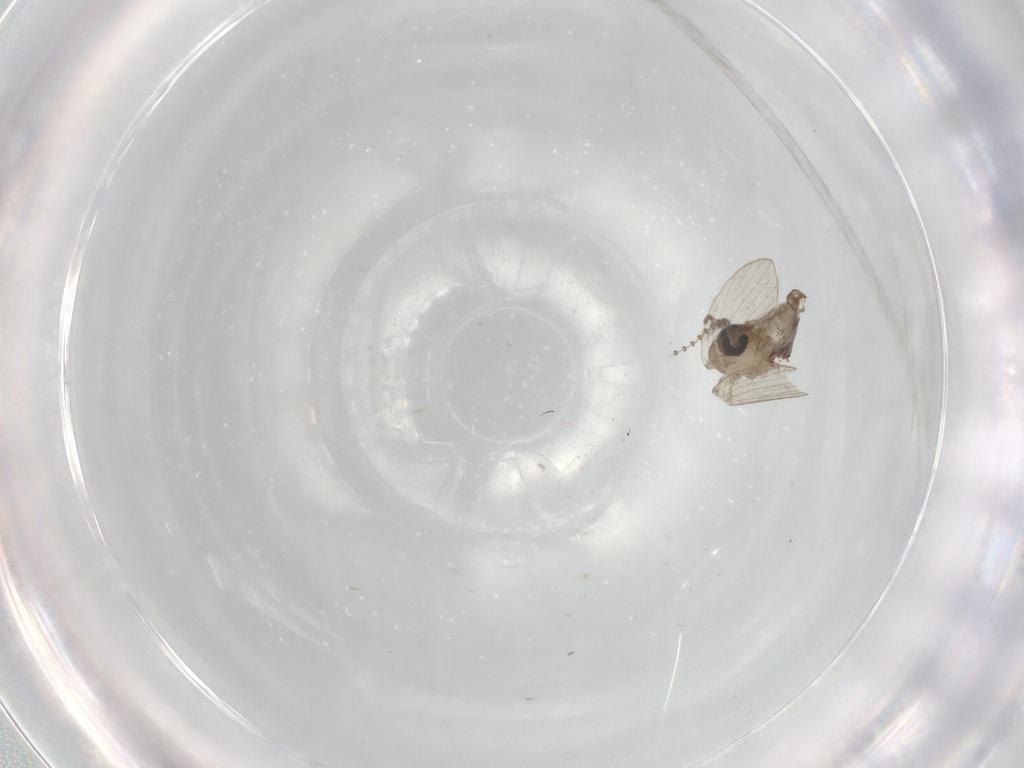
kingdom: Animalia
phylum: Arthropoda
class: Insecta
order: Diptera
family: Psychodidae
